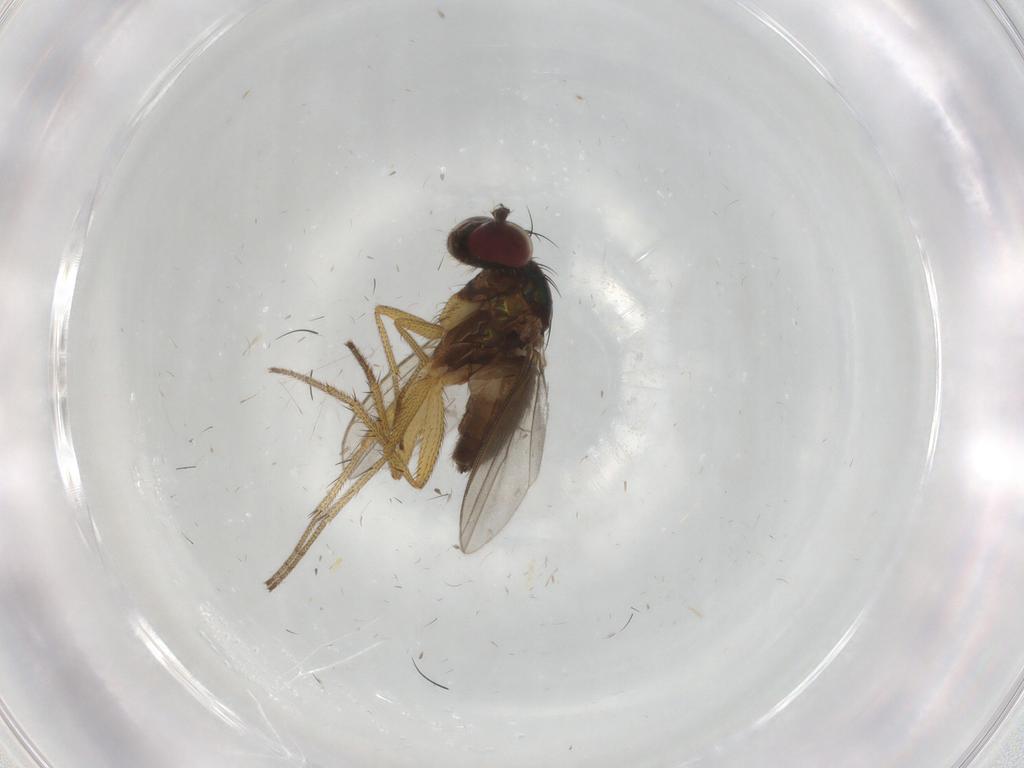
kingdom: Animalia
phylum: Arthropoda
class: Insecta
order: Diptera
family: Dolichopodidae
